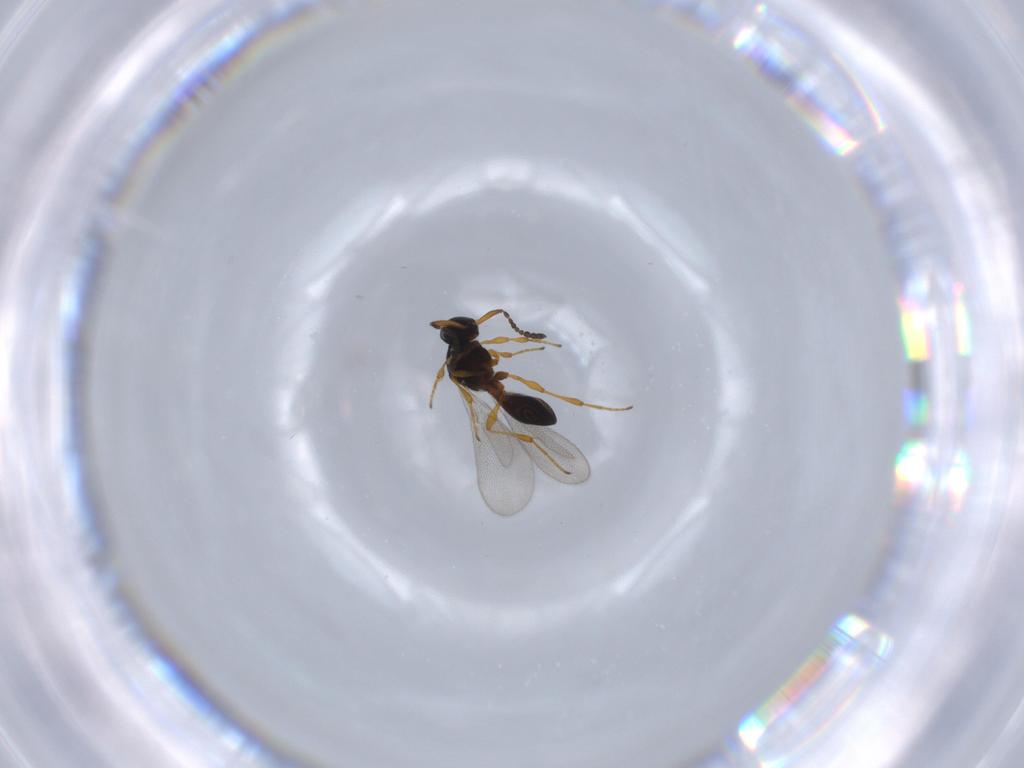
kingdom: Animalia
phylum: Arthropoda
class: Insecta
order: Hymenoptera
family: Platygastridae
